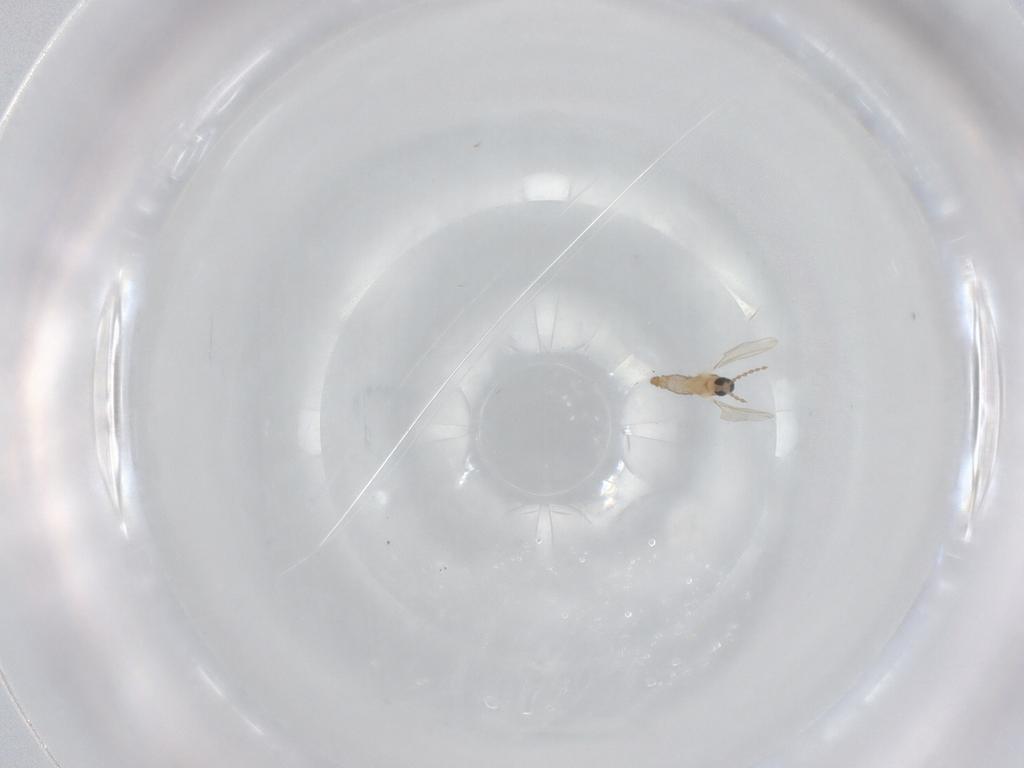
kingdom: Animalia
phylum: Arthropoda
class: Insecta
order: Diptera
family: Cecidomyiidae
